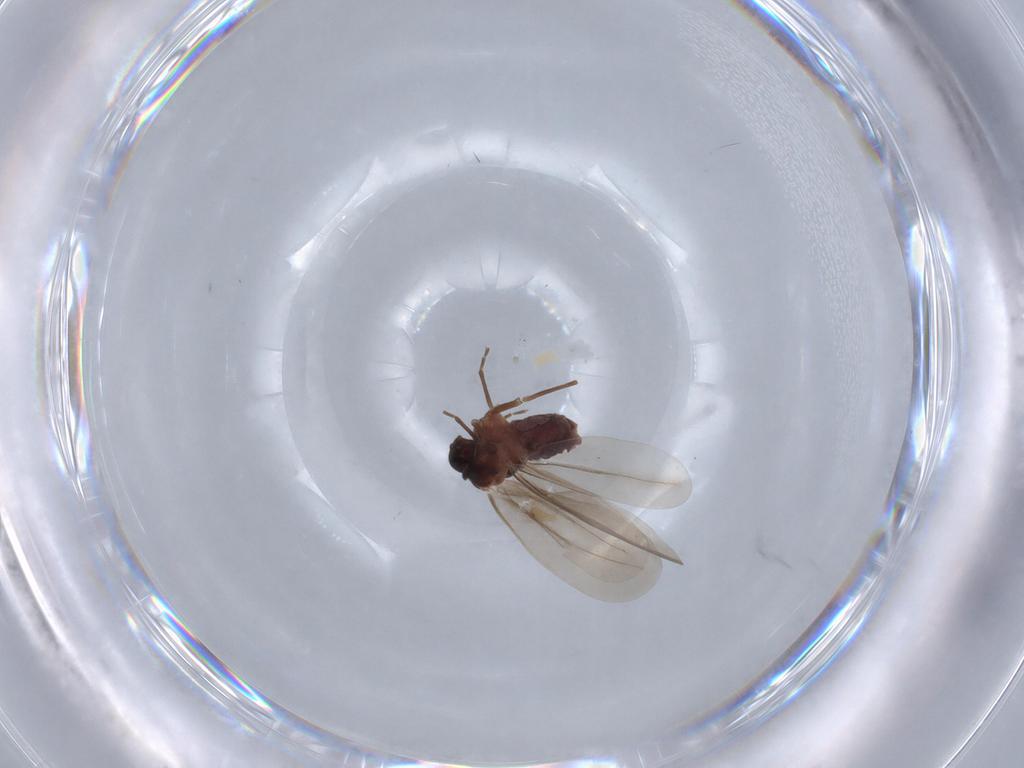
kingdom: Animalia
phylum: Arthropoda
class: Insecta
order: Hemiptera
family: Aleyrodidae
